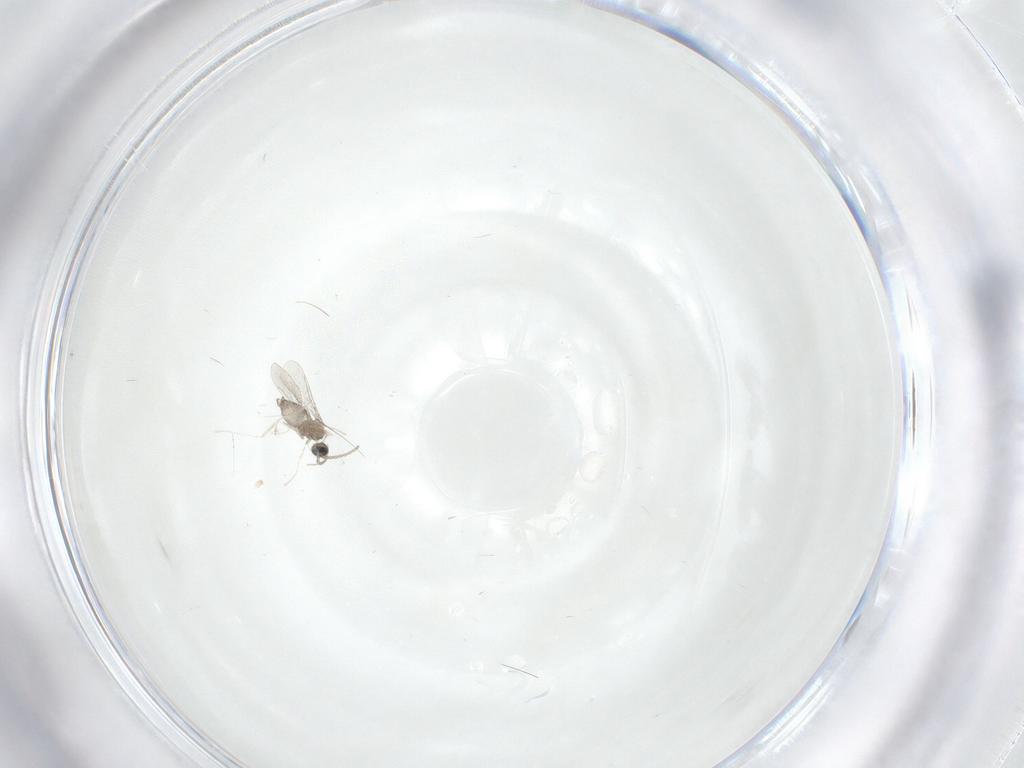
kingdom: Animalia
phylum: Arthropoda
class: Insecta
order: Diptera
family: Cecidomyiidae
